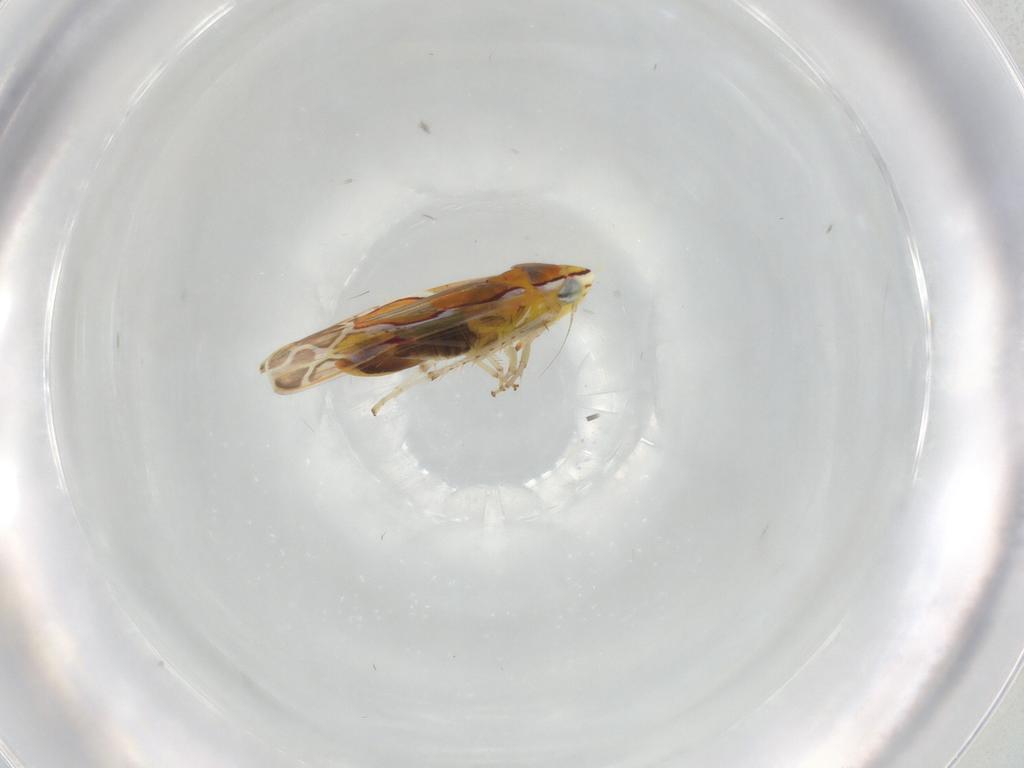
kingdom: Animalia
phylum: Arthropoda
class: Insecta
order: Hemiptera
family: Cicadellidae
